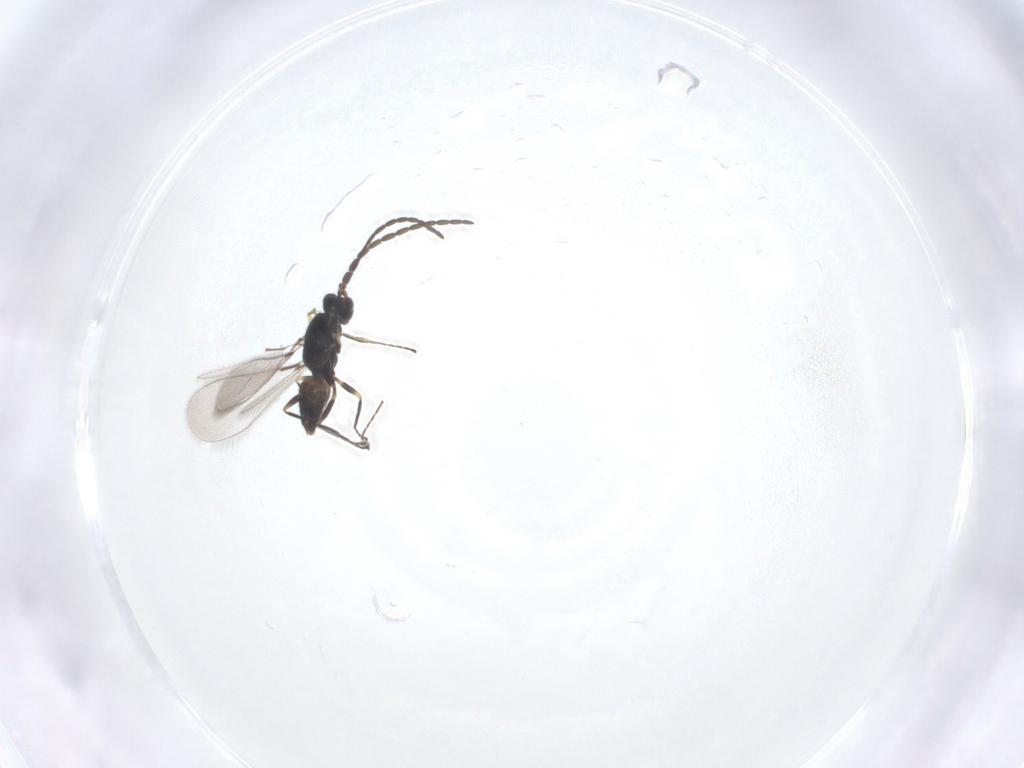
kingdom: Animalia
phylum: Arthropoda
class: Insecta
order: Hymenoptera
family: Mymaridae
